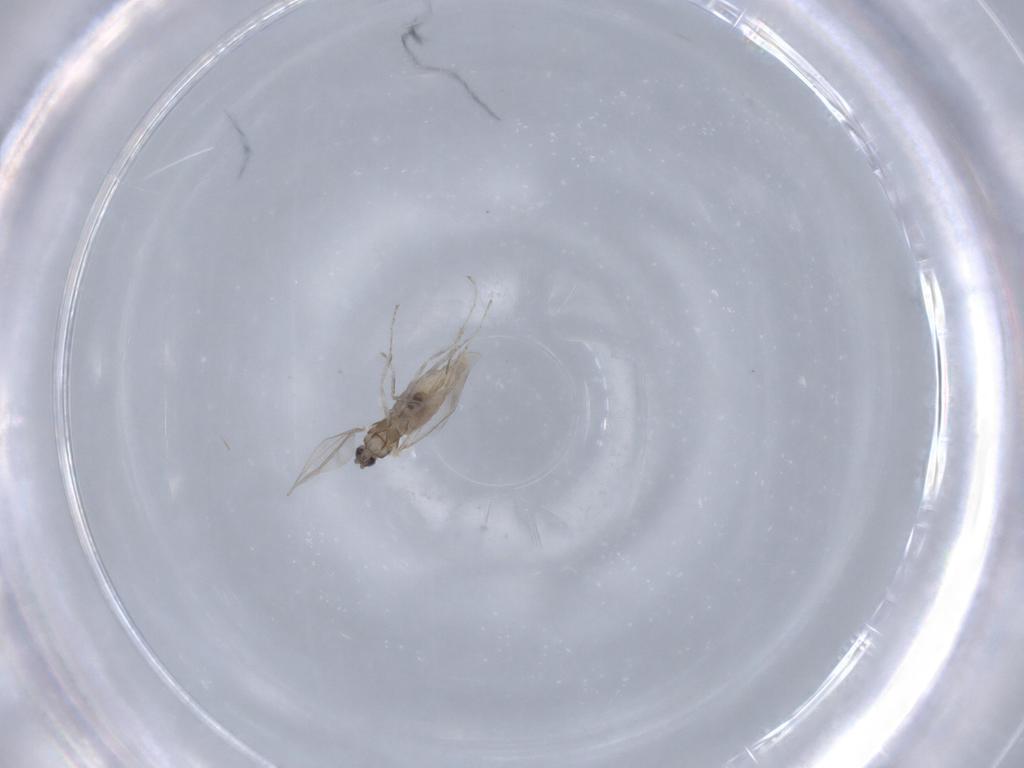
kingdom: Animalia
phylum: Arthropoda
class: Insecta
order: Diptera
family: Cecidomyiidae
